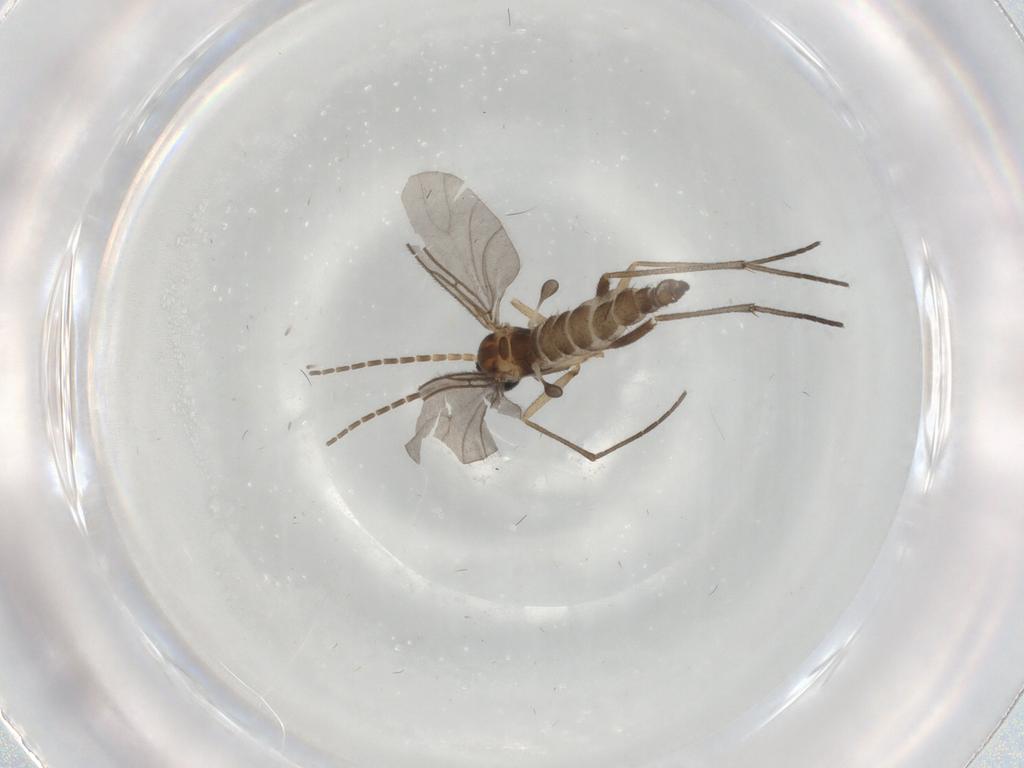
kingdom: Animalia
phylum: Arthropoda
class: Insecta
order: Diptera
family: Sciaridae
